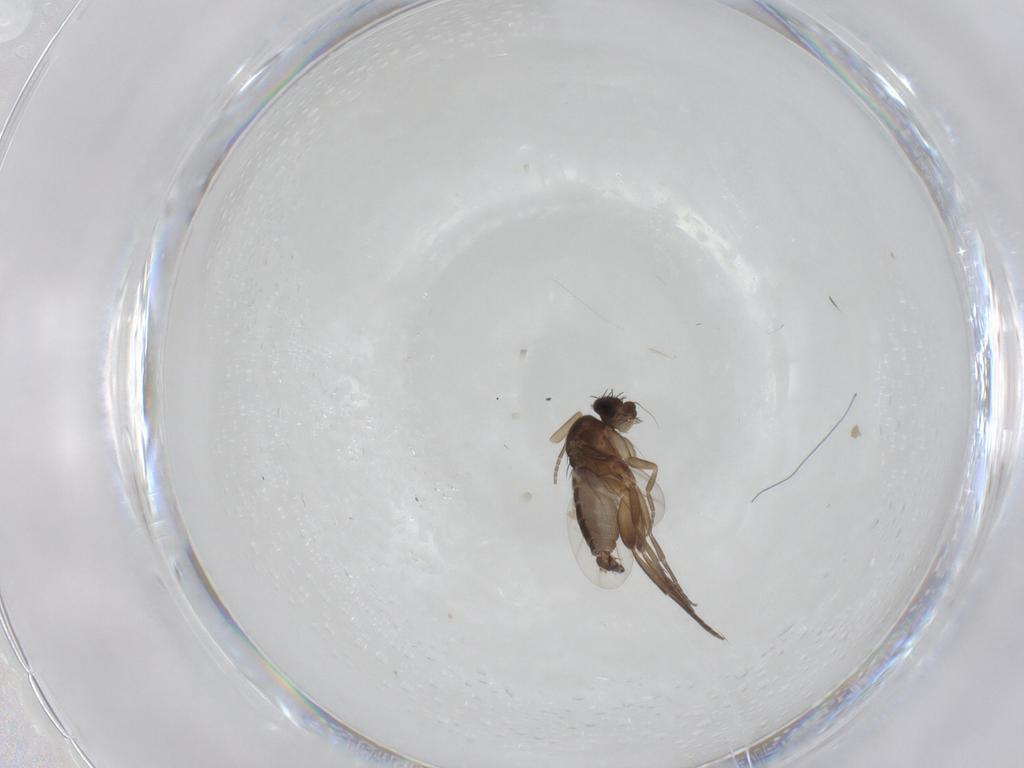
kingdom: Animalia
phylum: Arthropoda
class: Insecta
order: Diptera
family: Phoridae
